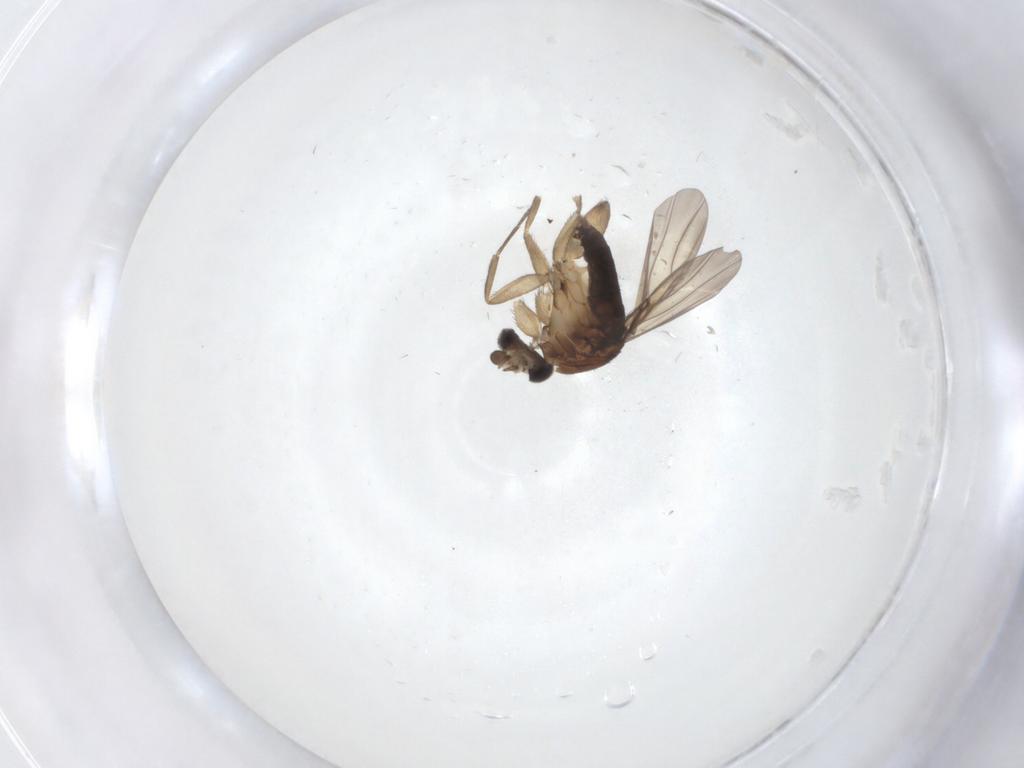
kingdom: Animalia
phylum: Arthropoda
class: Insecta
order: Diptera
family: Phoridae
